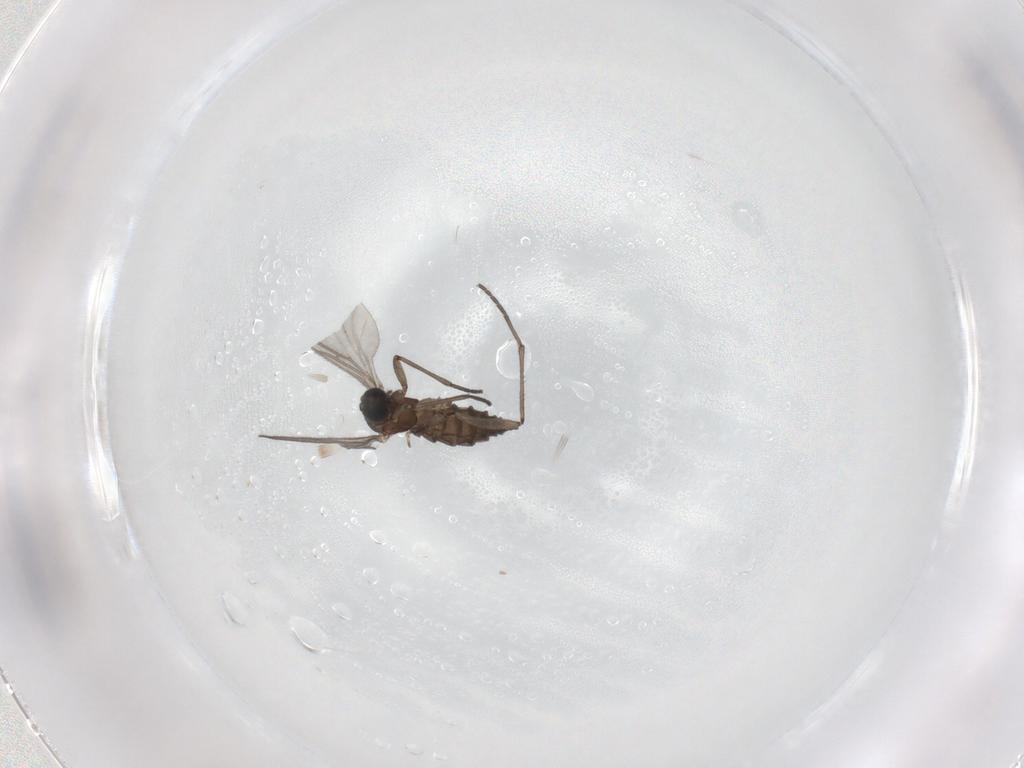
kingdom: Animalia
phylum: Arthropoda
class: Insecta
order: Diptera
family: Sciaridae
